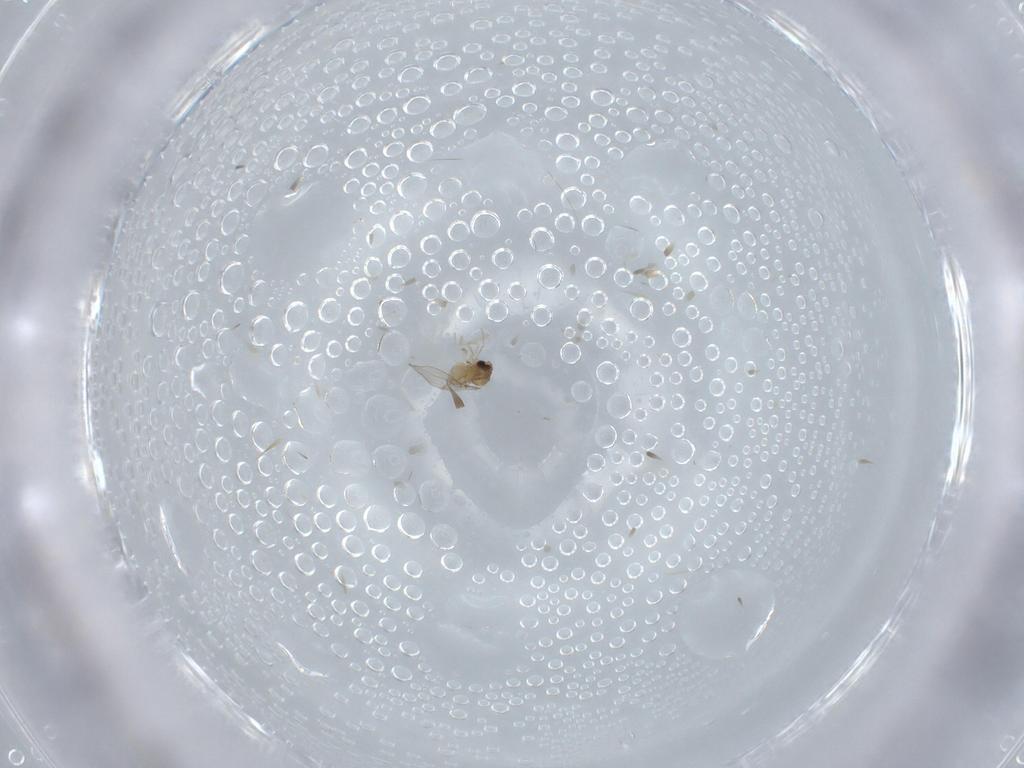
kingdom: Animalia
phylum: Arthropoda
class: Insecta
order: Diptera
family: Cecidomyiidae
